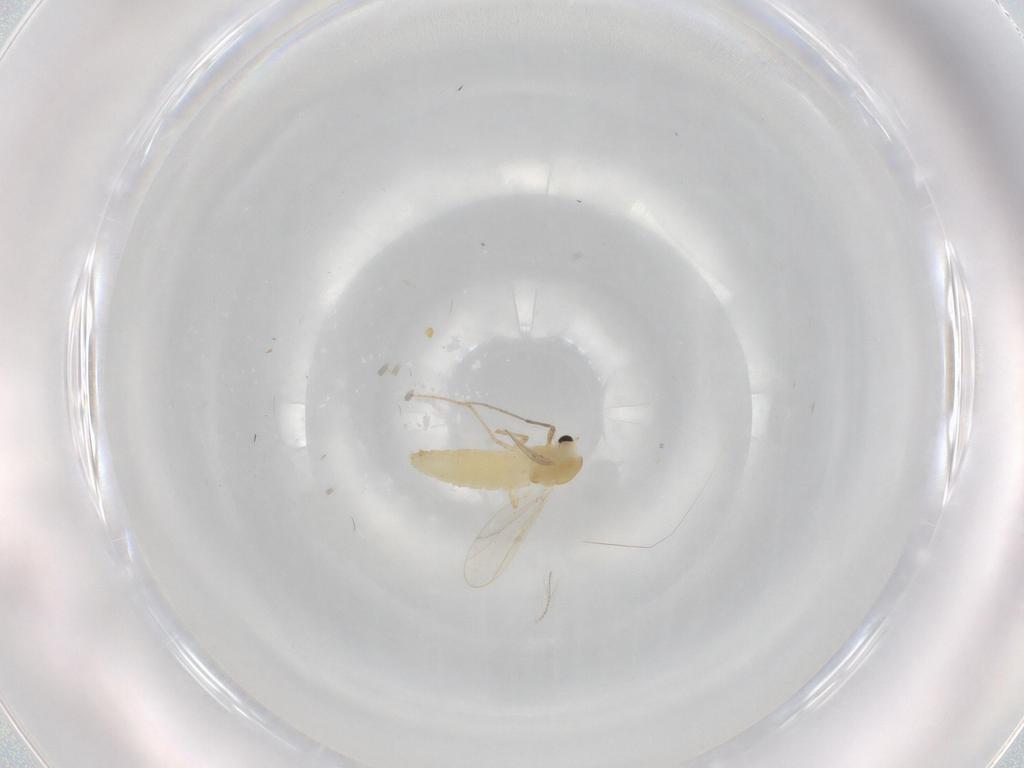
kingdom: Animalia
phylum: Arthropoda
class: Insecta
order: Diptera
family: Chironomidae
